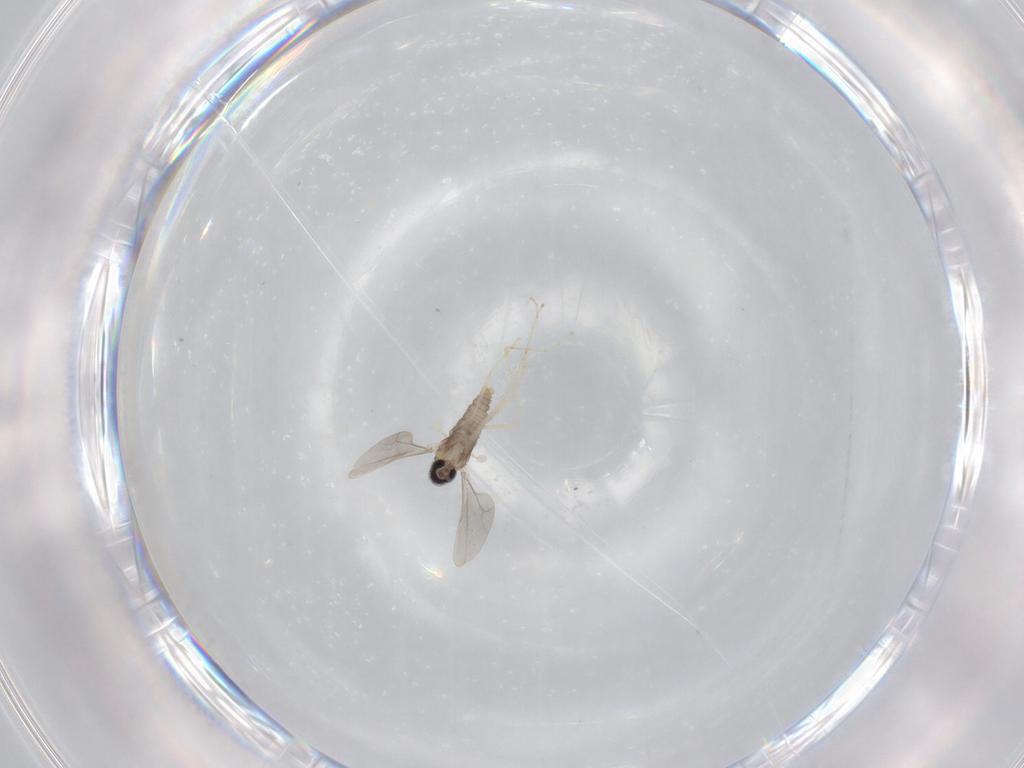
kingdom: Animalia
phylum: Arthropoda
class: Insecta
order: Diptera
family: Cecidomyiidae
